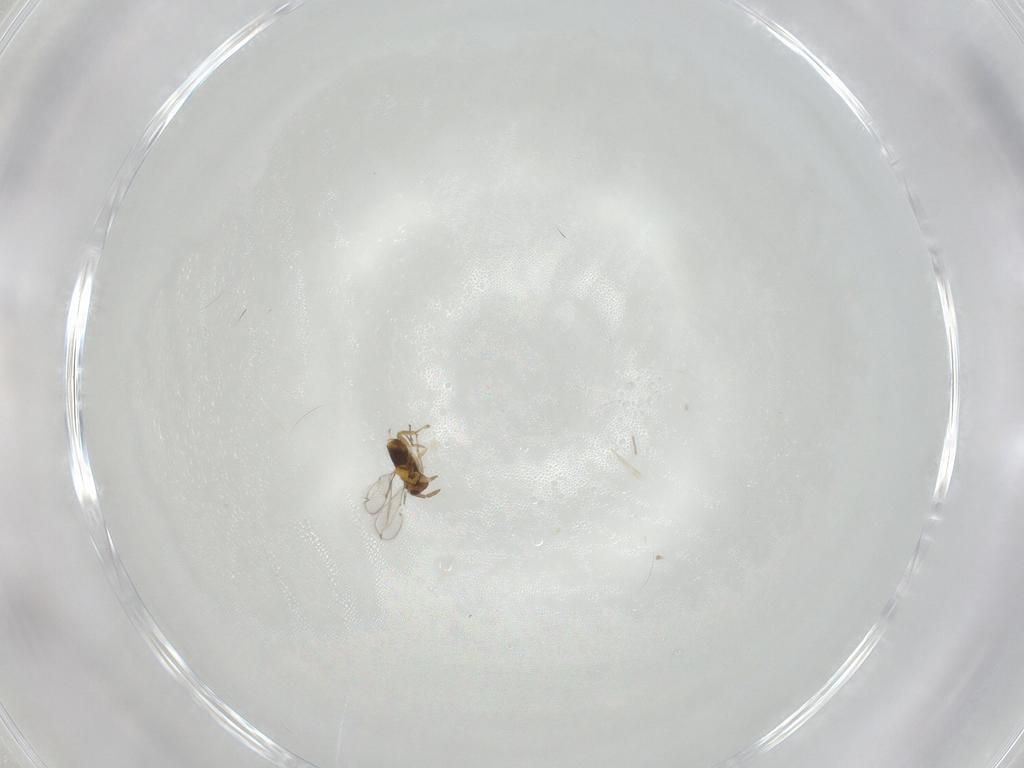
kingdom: Animalia
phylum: Arthropoda
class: Insecta
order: Hymenoptera
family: Aphelinidae
